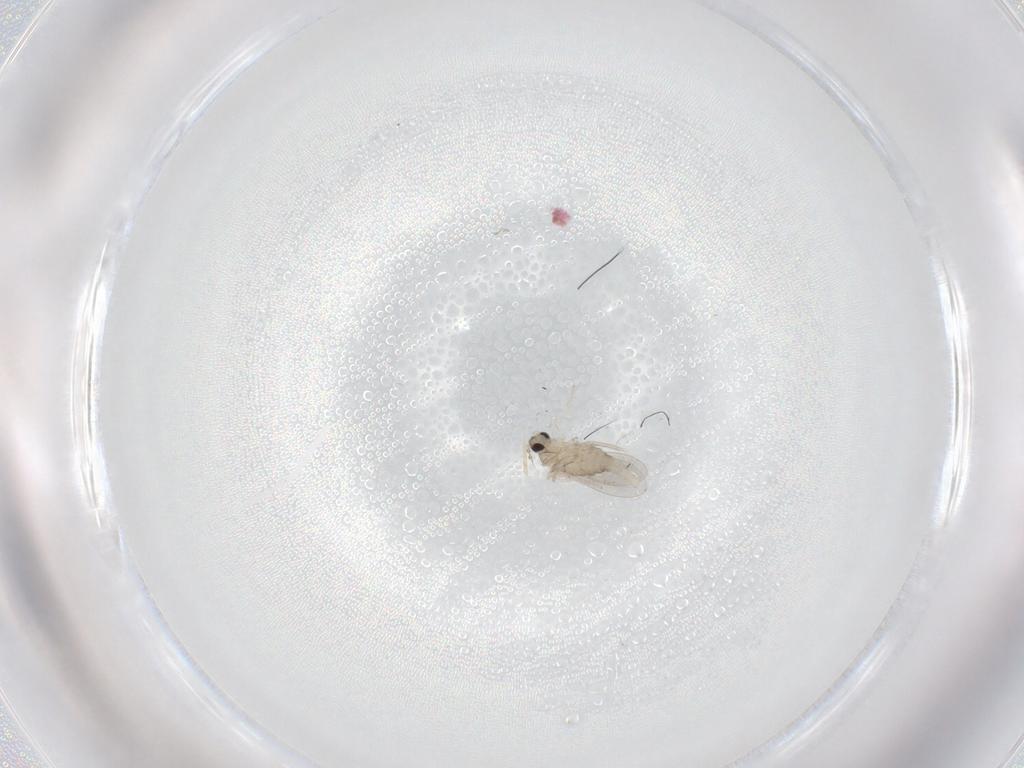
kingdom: Animalia
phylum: Arthropoda
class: Insecta
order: Diptera
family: Cecidomyiidae
